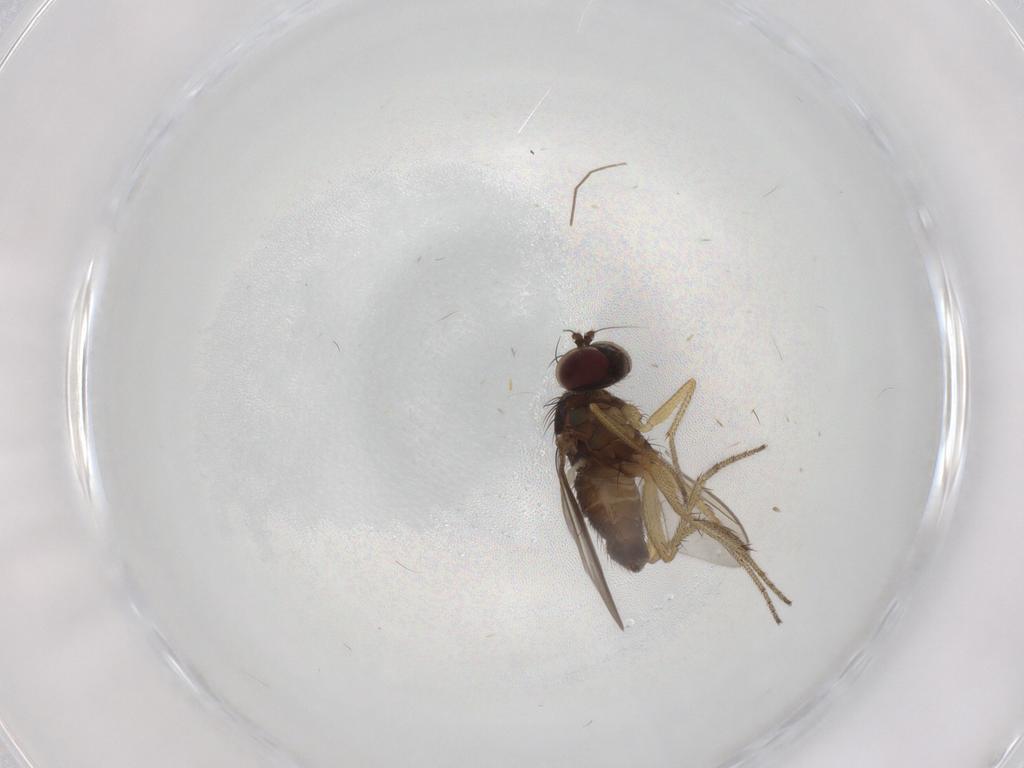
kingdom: Animalia
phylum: Arthropoda
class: Insecta
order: Diptera
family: Chironomidae
